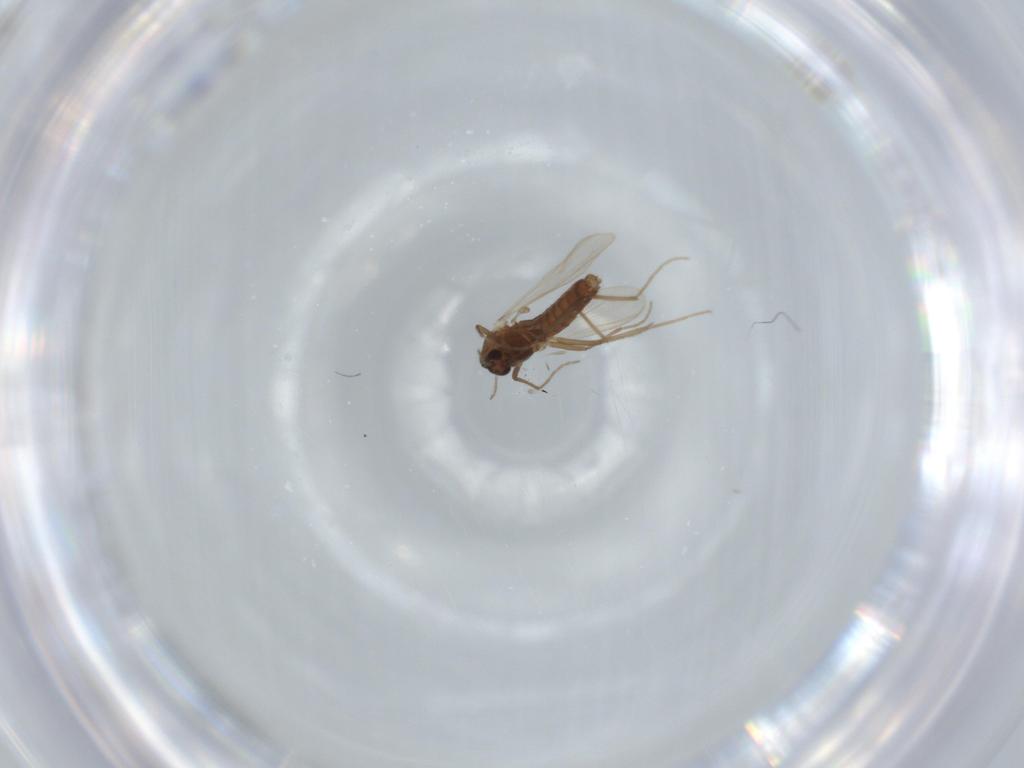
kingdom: Animalia
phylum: Arthropoda
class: Insecta
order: Diptera
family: Chironomidae
